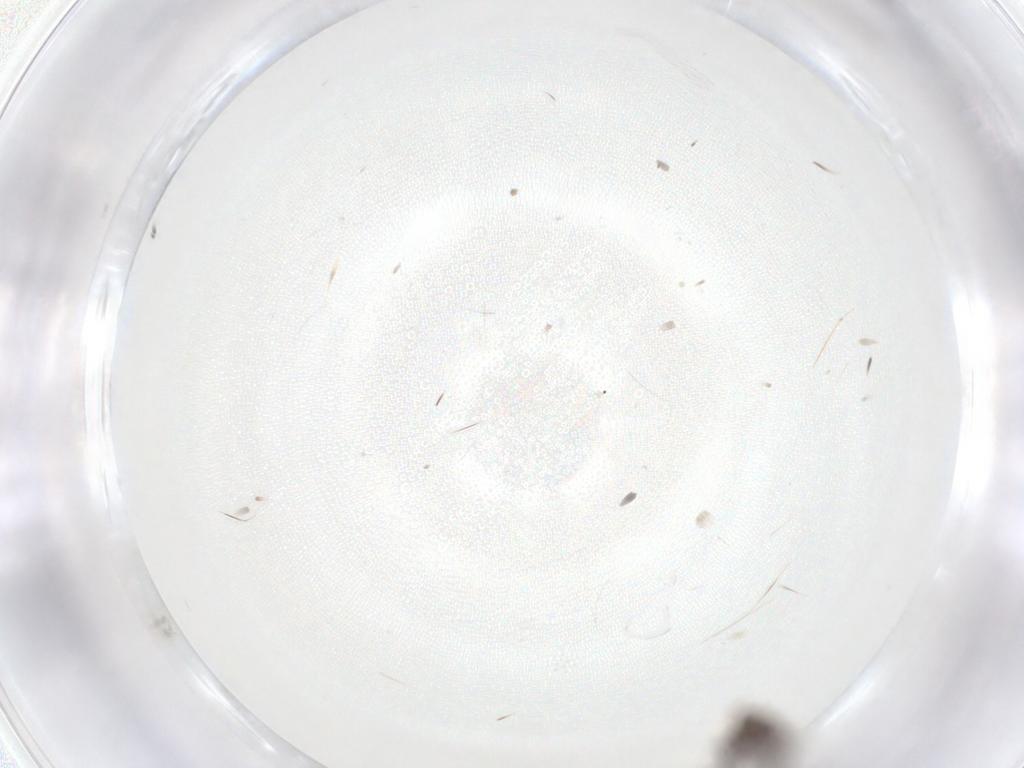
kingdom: Animalia
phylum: Arthropoda
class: Insecta
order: Diptera
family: Chironomidae
